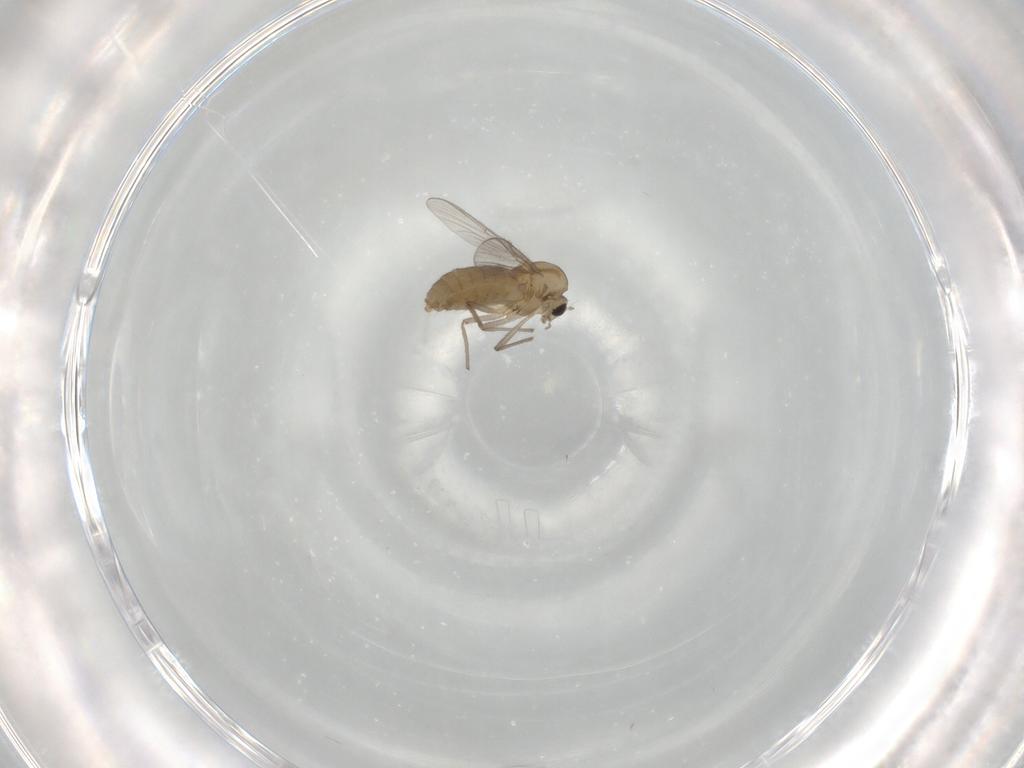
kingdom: Animalia
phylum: Arthropoda
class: Insecta
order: Diptera
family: Chironomidae
